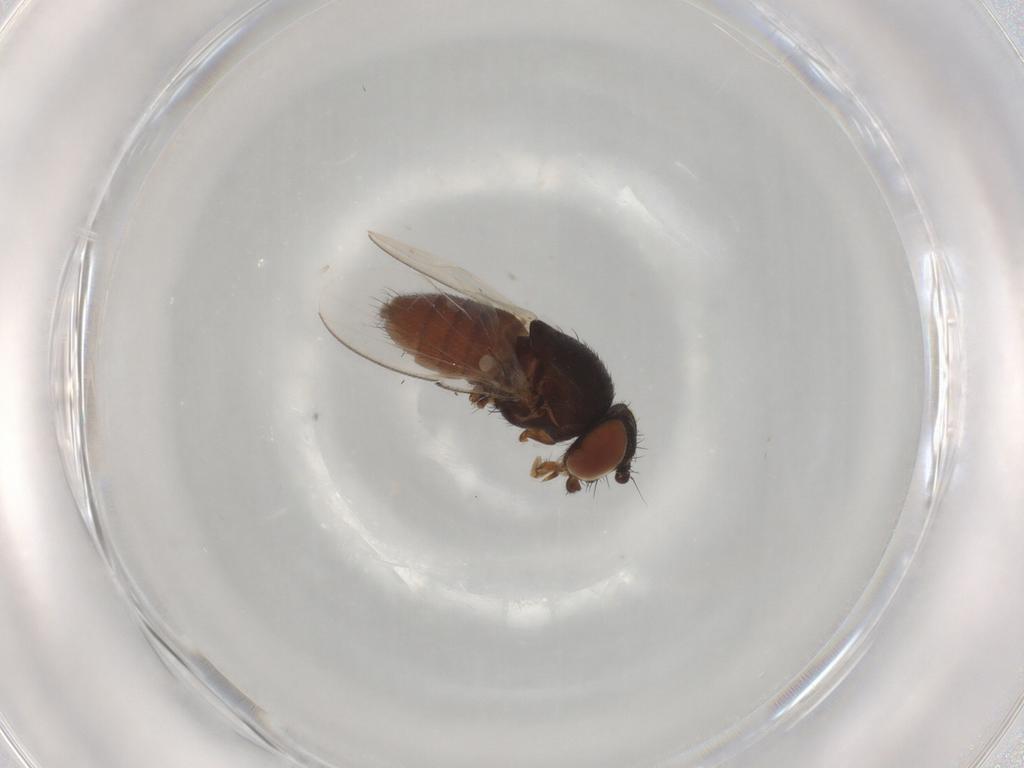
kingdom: Animalia
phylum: Arthropoda
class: Insecta
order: Diptera
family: Milichiidae
